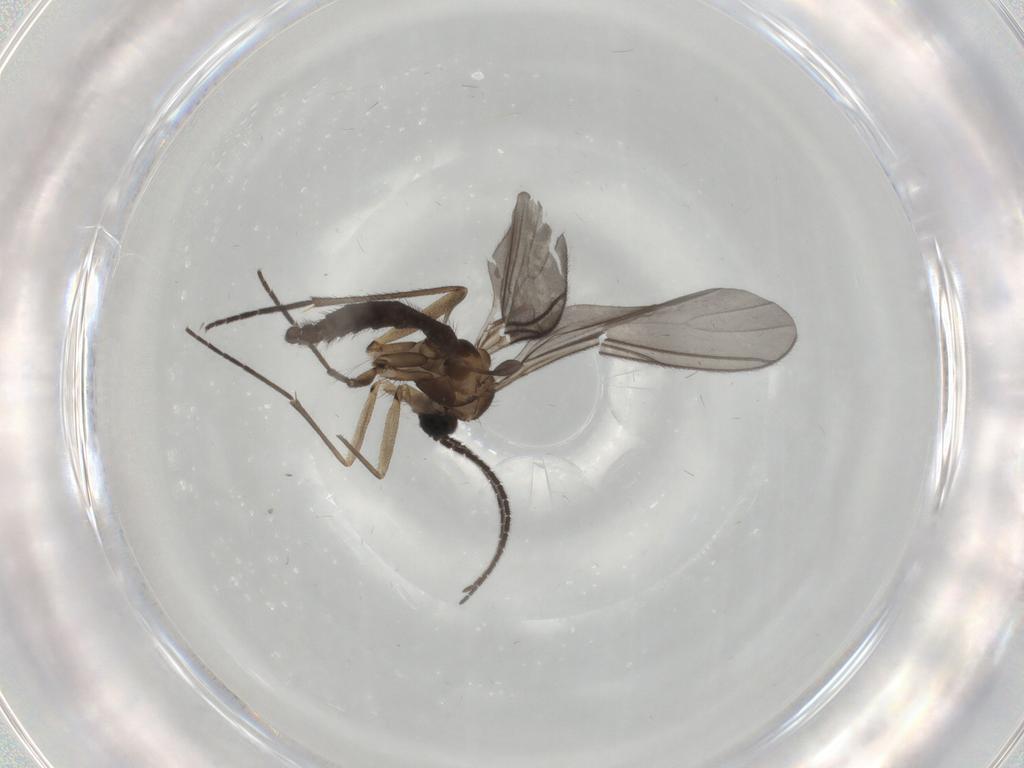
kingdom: Animalia
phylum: Arthropoda
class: Insecta
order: Diptera
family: Sciaridae
